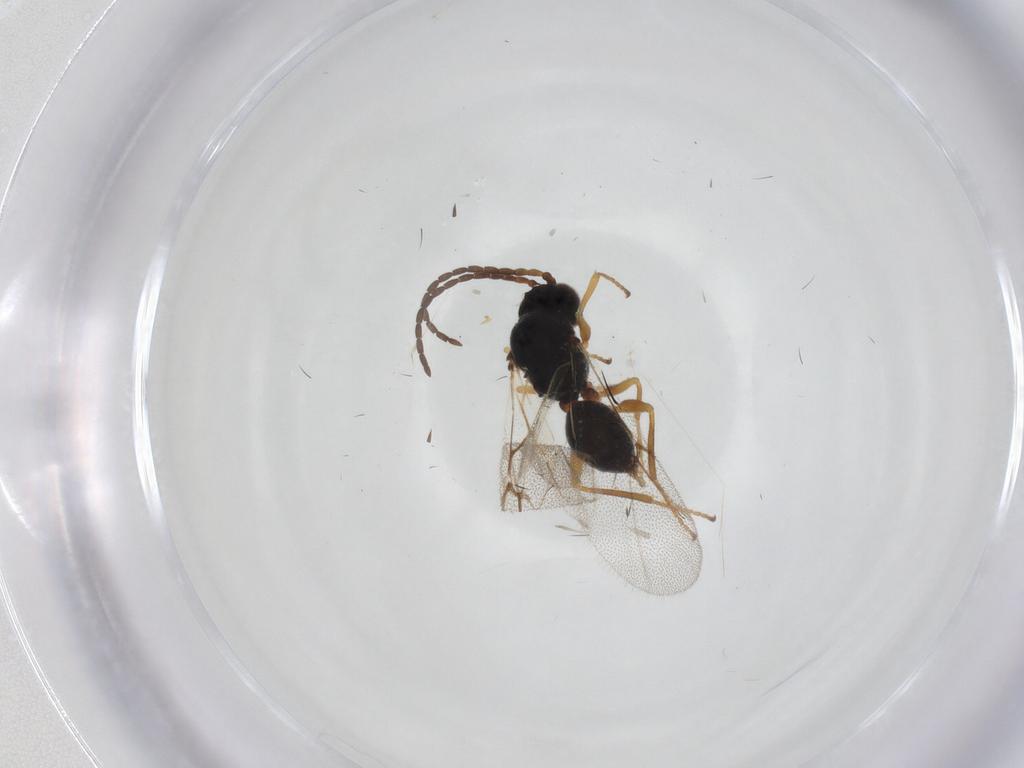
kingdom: Animalia
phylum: Arthropoda
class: Insecta
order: Hymenoptera
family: Cynipidae
